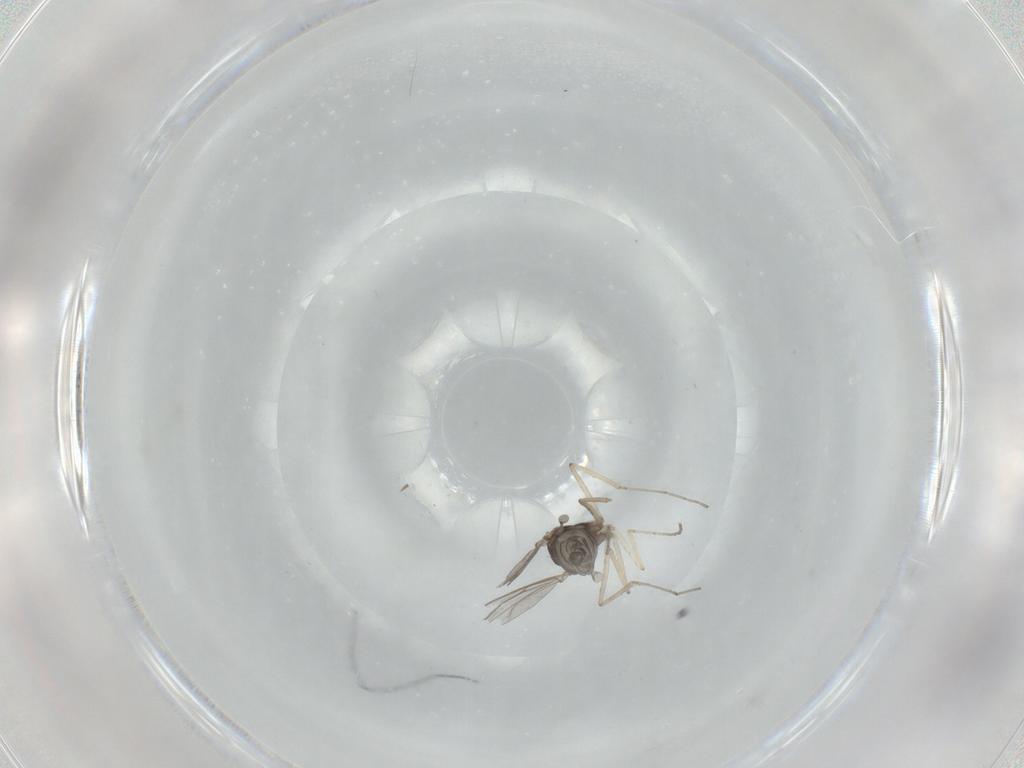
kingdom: Animalia
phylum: Arthropoda
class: Insecta
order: Diptera
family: Cecidomyiidae
